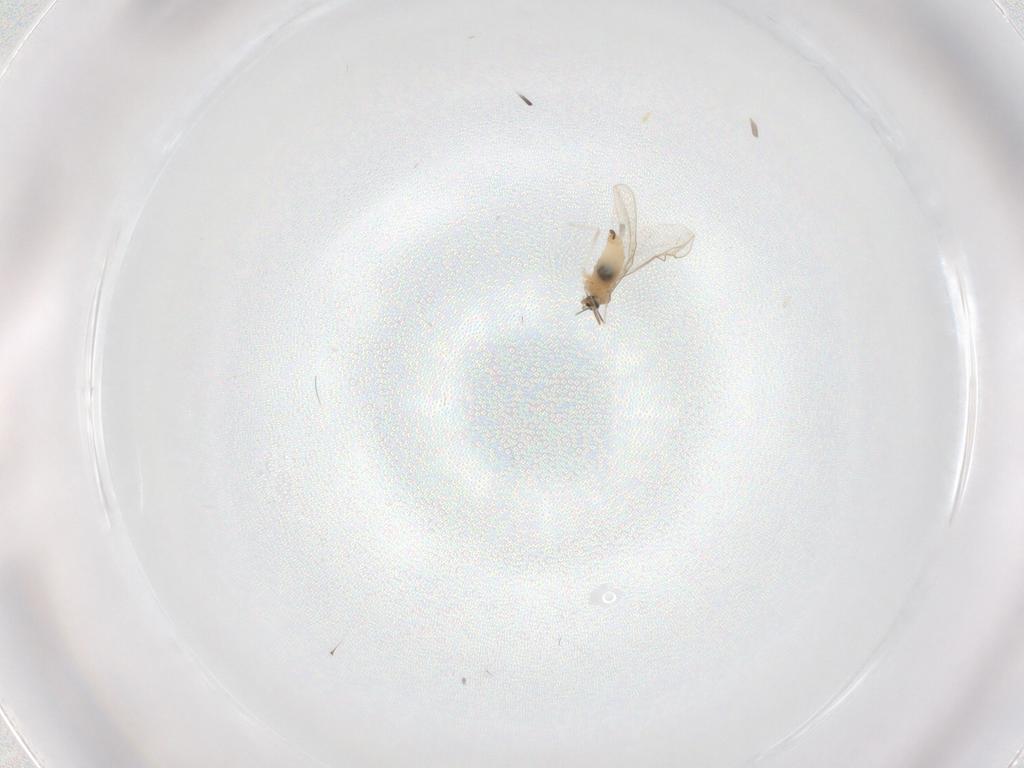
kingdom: Animalia
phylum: Arthropoda
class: Insecta
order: Diptera
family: Cecidomyiidae
